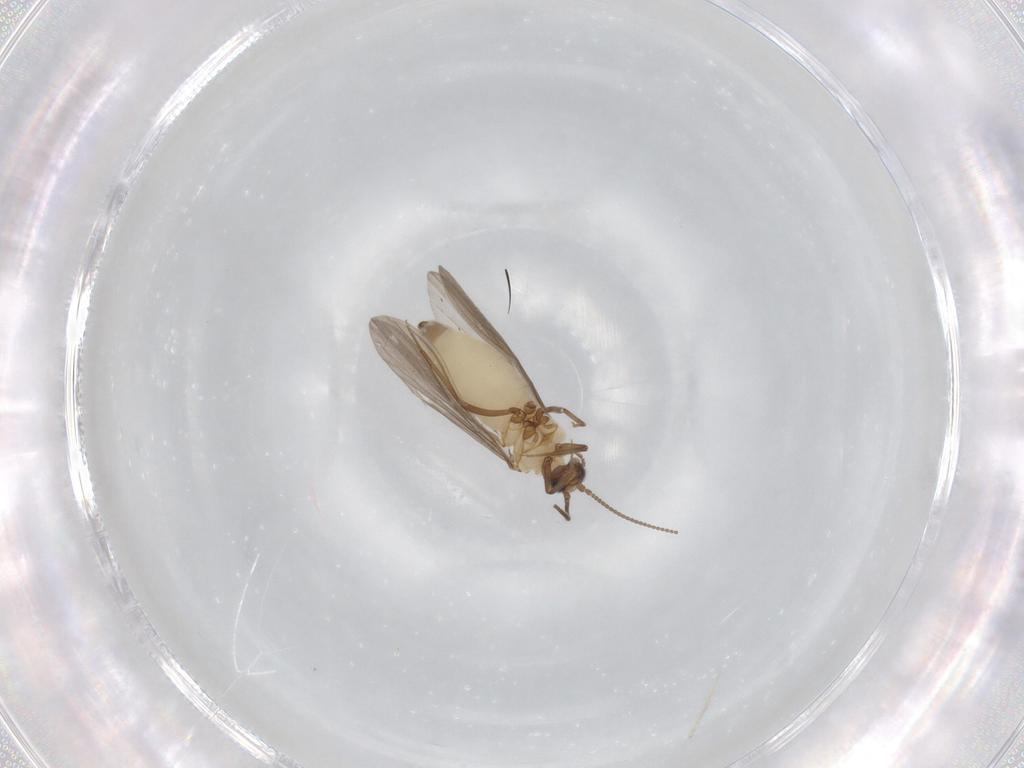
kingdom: Animalia
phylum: Arthropoda
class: Insecta
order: Neuroptera
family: Coniopterygidae
